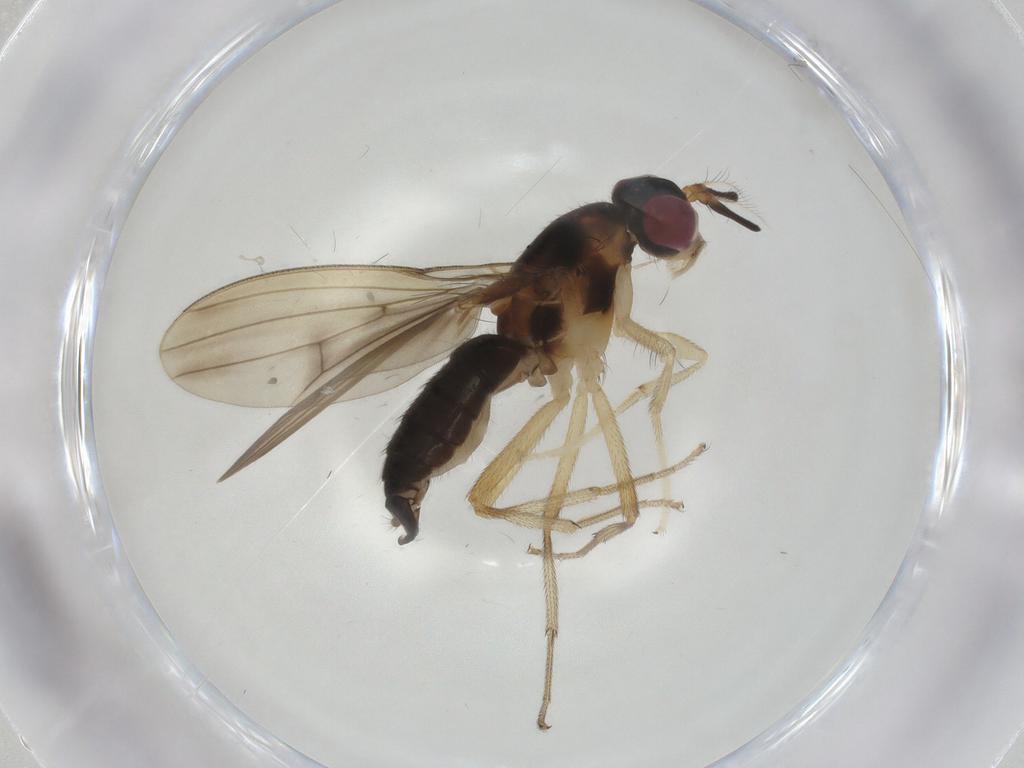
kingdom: Animalia
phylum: Arthropoda
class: Insecta
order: Diptera
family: Lauxaniidae
